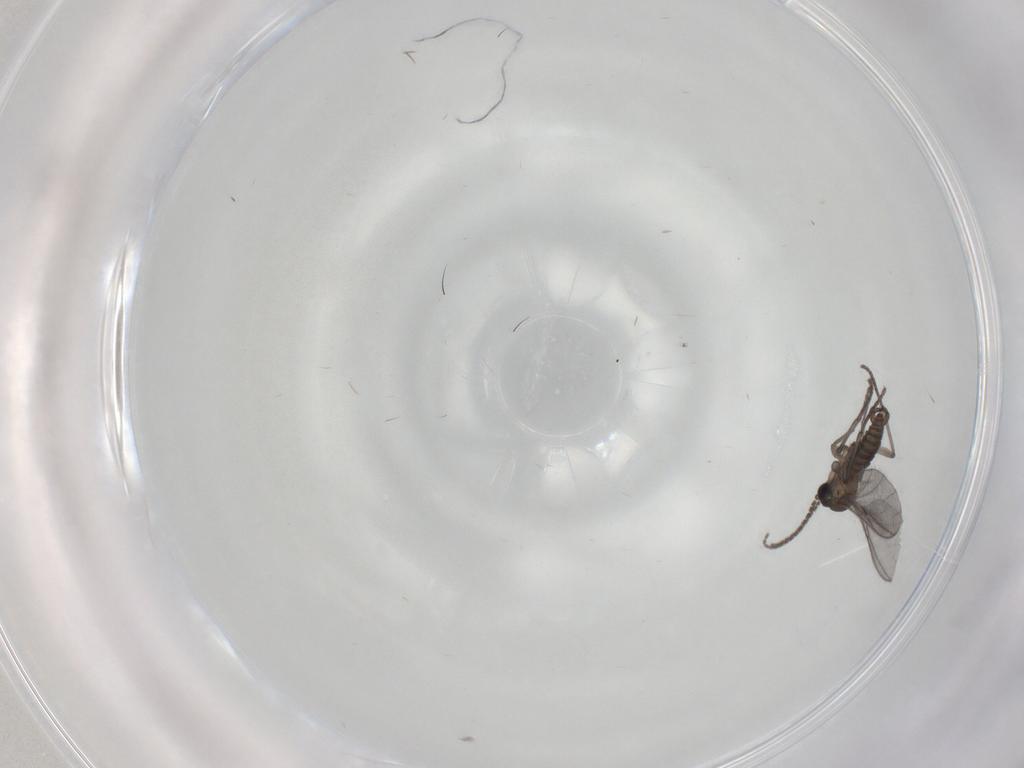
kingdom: Animalia
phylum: Arthropoda
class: Insecta
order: Diptera
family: Sciaridae
